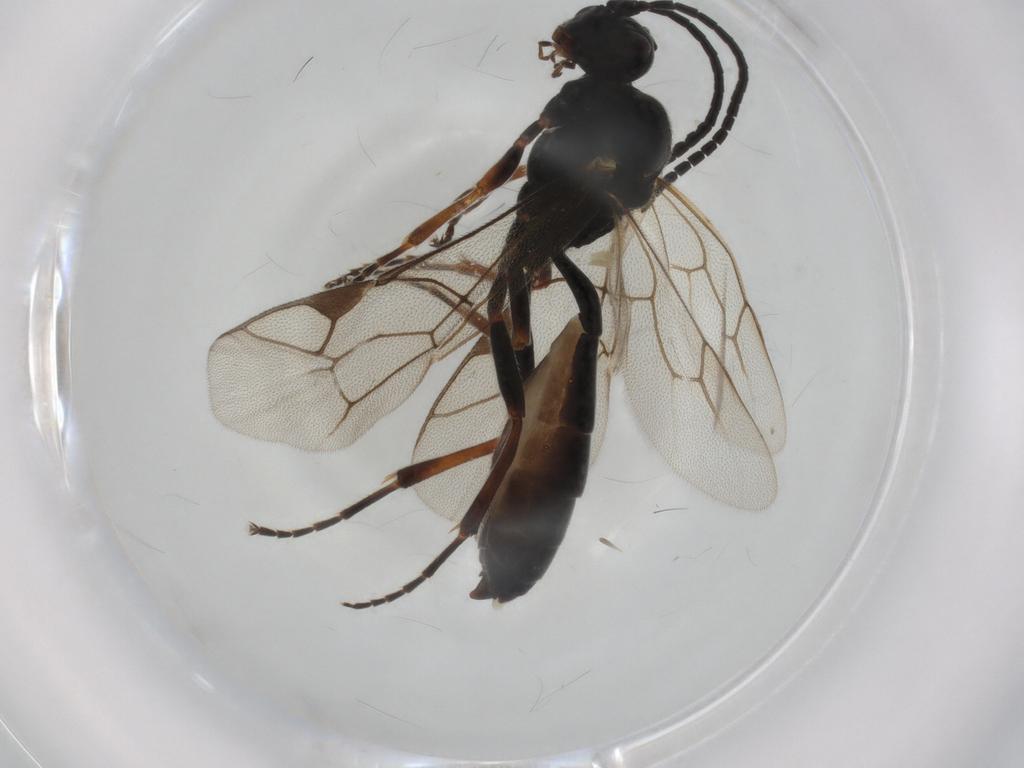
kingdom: Animalia
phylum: Arthropoda
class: Insecta
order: Hymenoptera
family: Ichneumonidae
